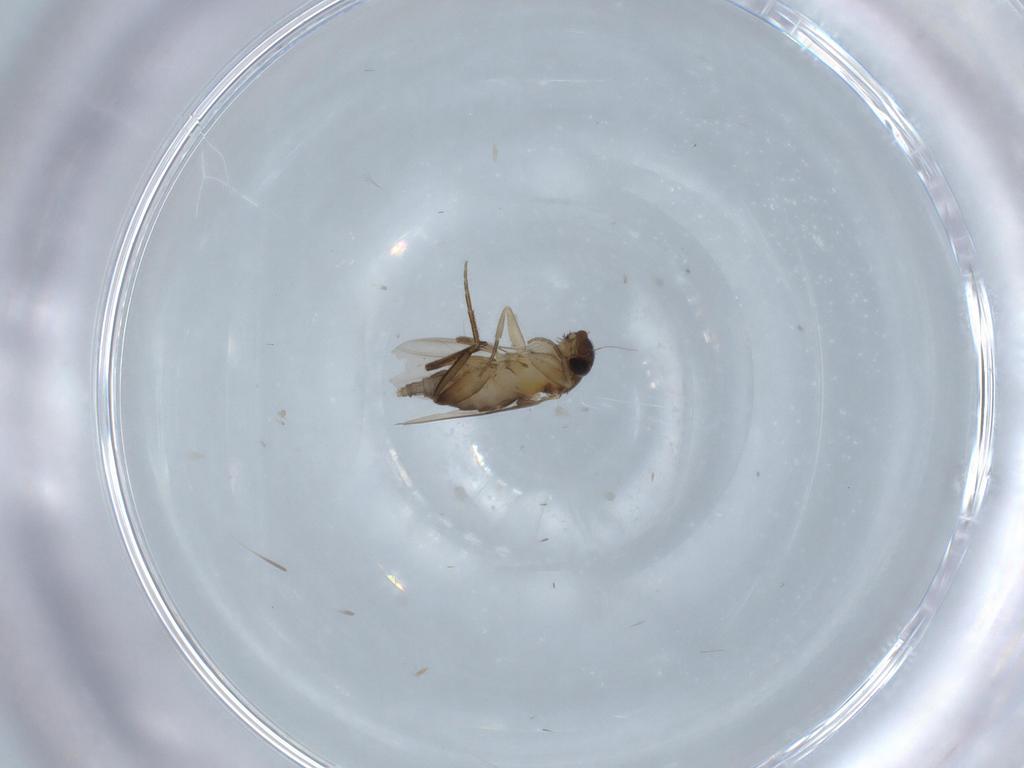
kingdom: Animalia
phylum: Arthropoda
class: Insecta
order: Diptera
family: Phoridae
